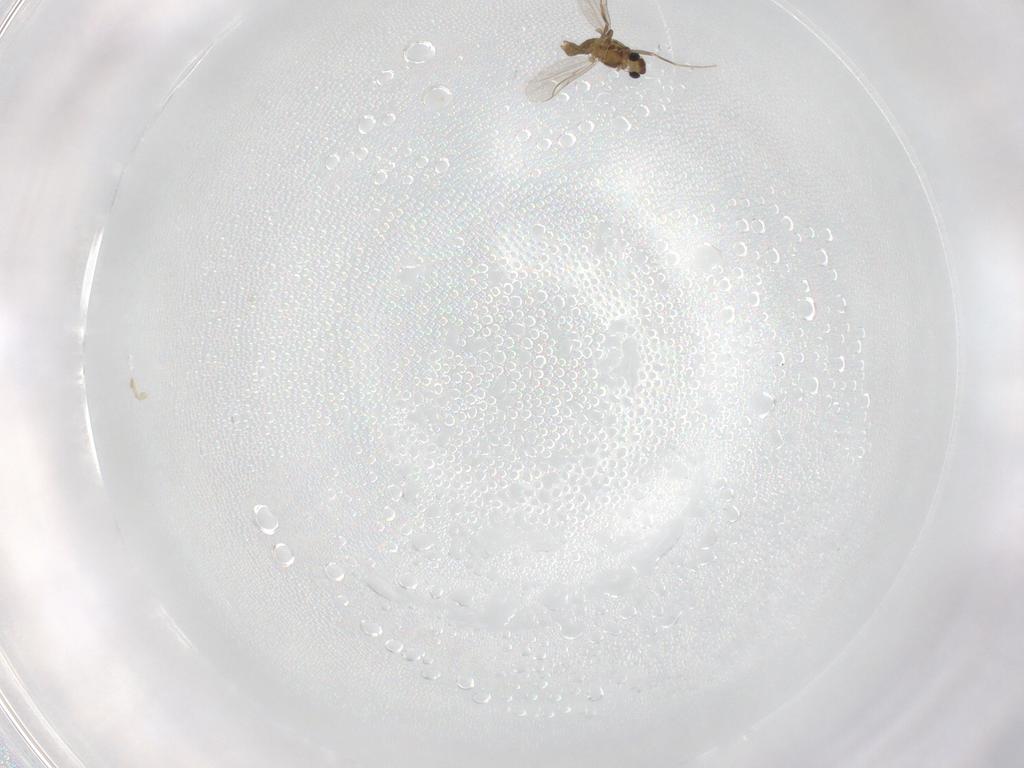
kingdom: Animalia
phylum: Arthropoda
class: Insecta
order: Diptera
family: Chironomidae
